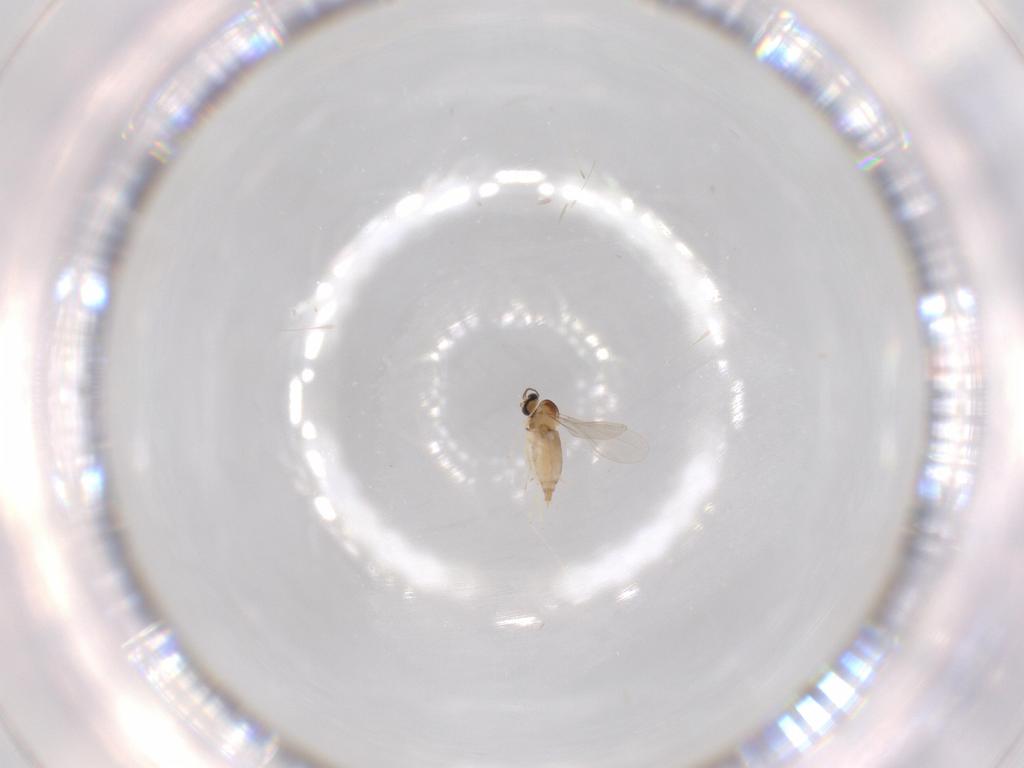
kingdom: Animalia
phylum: Arthropoda
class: Insecta
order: Diptera
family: Chironomidae
